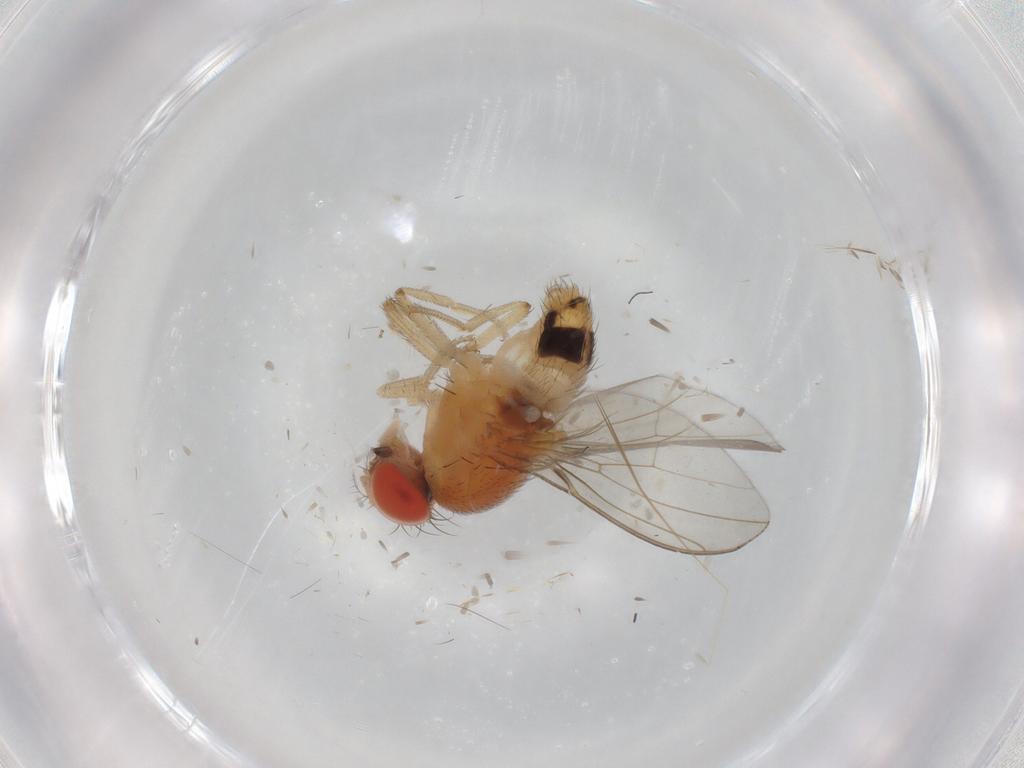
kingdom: Animalia
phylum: Arthropoda
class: Insecta
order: Diptera
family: Drosophilidae
